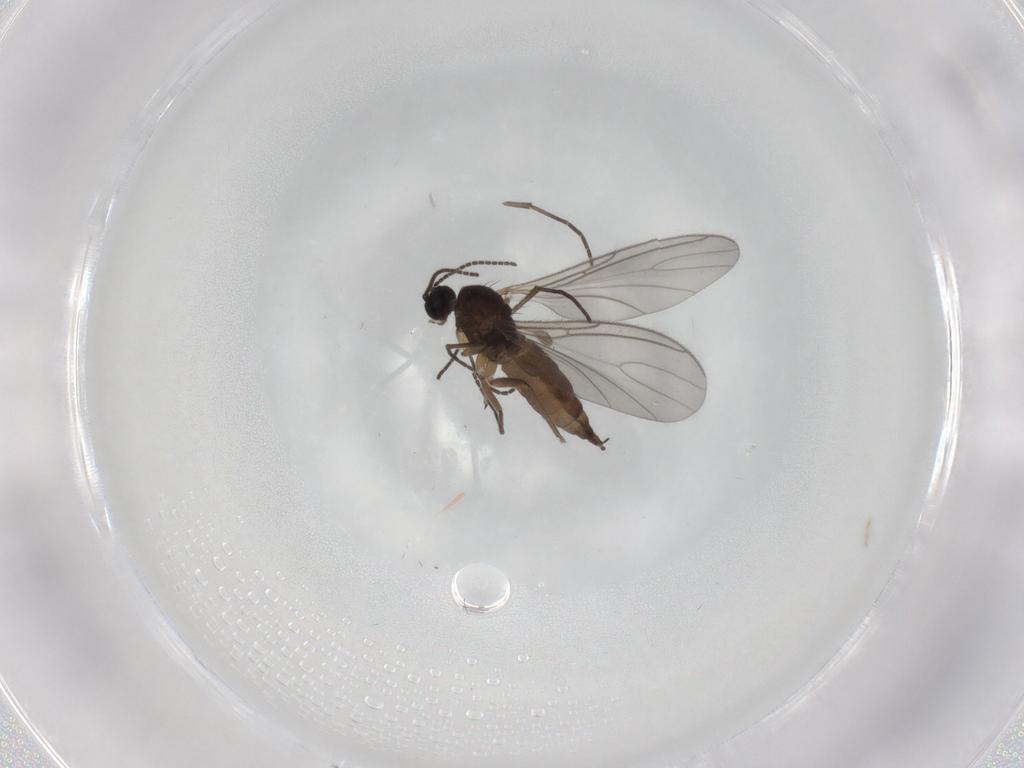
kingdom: Animalia
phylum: Arthropoda
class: Insecta
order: Diptera
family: Sciaridae
